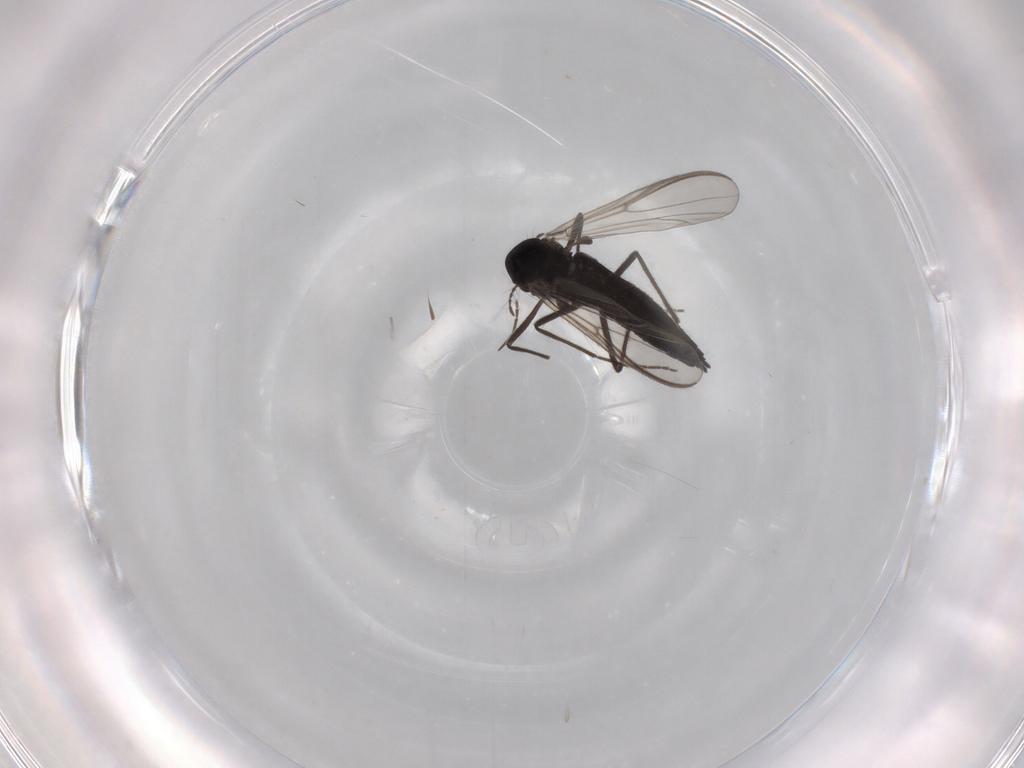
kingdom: Animalia
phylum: Arthropoda
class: Insecta
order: Diptera
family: Chironomidae
